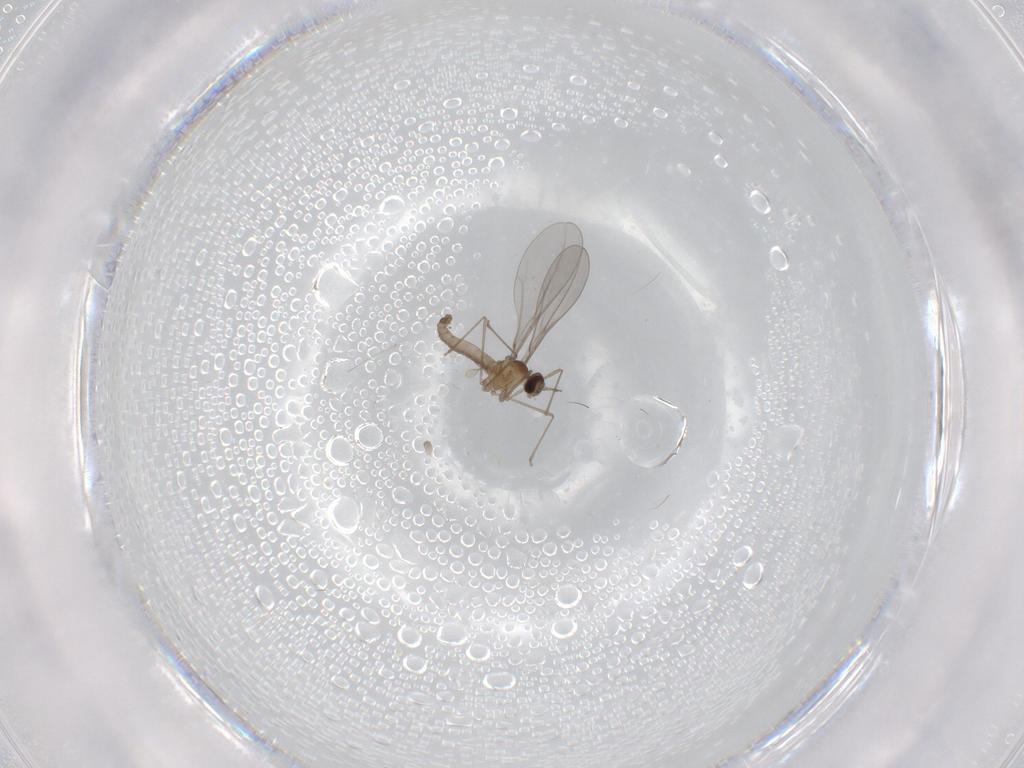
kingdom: Animalia
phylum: Arthropoda
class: Insecta
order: Diptera
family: Cecidomyiidae
